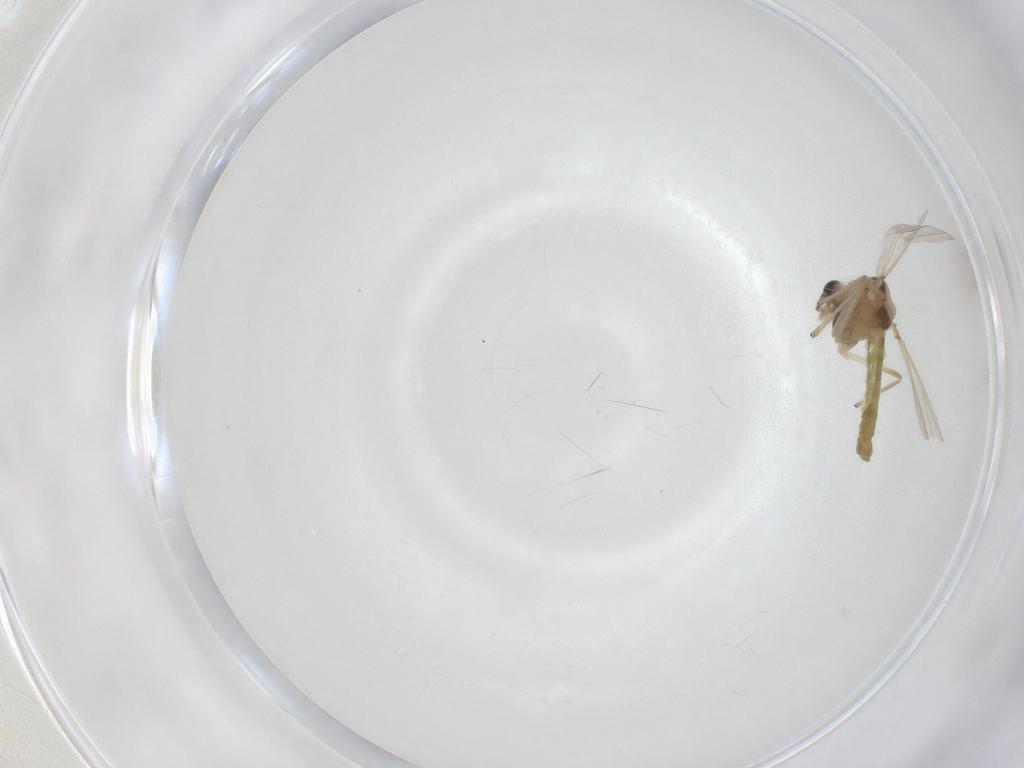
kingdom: Animalia
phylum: Arthropoda
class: Insecta
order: Diptera
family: Chironomidae
